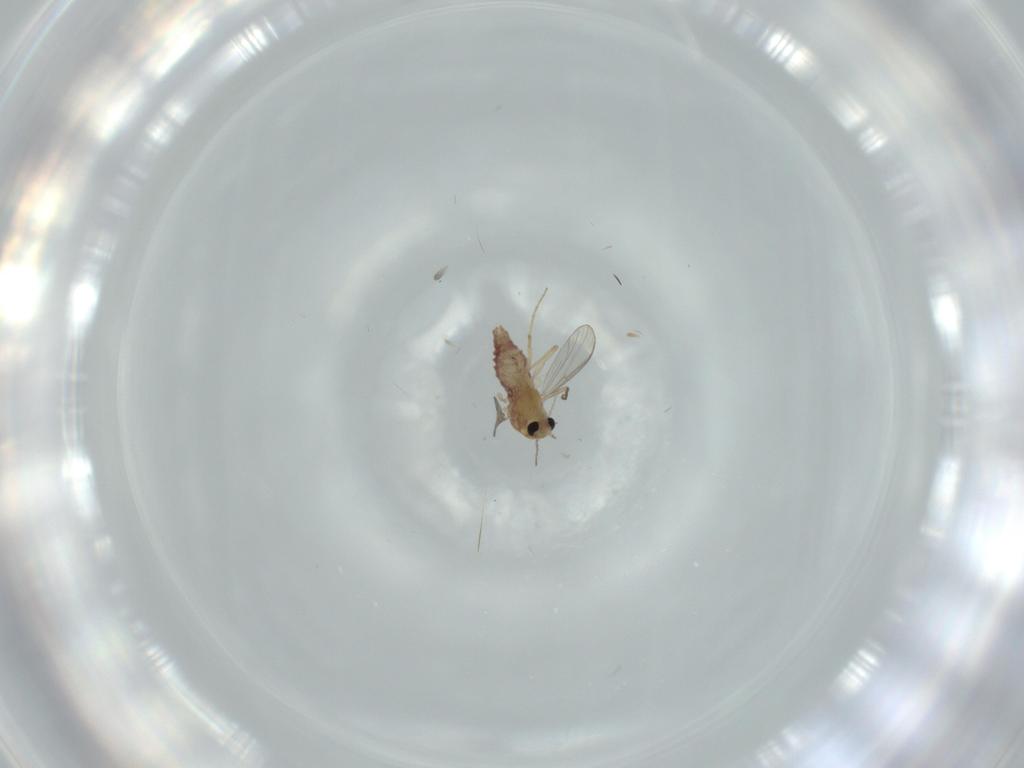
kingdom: Animalia
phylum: Arthropoda
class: Insecta
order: Diptera
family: Chironomidae
